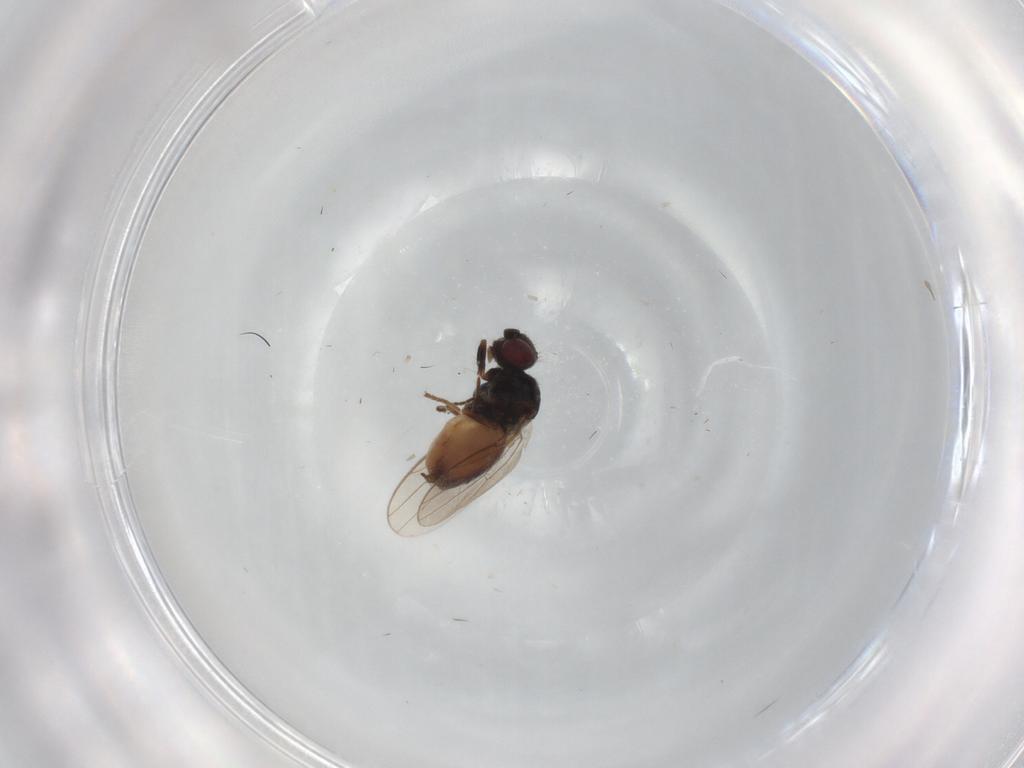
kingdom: Animalia
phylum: Arthropoda
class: Insecta
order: Diptera
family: Chloropidae
